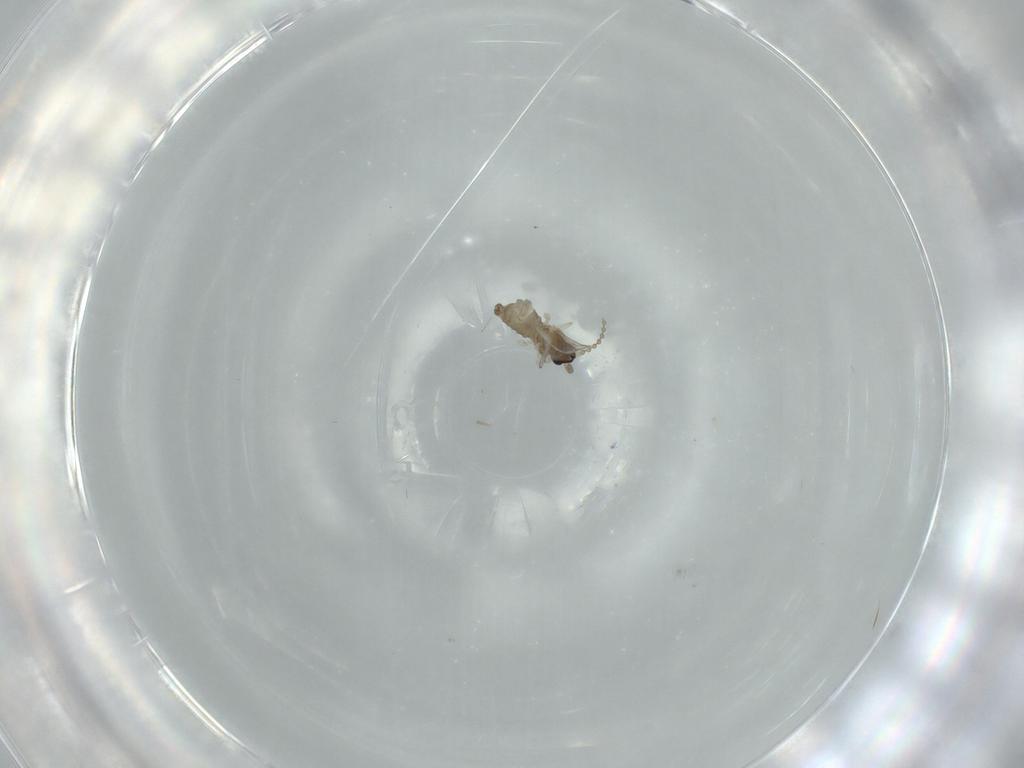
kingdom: Animalia
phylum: Arthropoda
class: Insecta
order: Diptera
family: Cecidomyiidae
